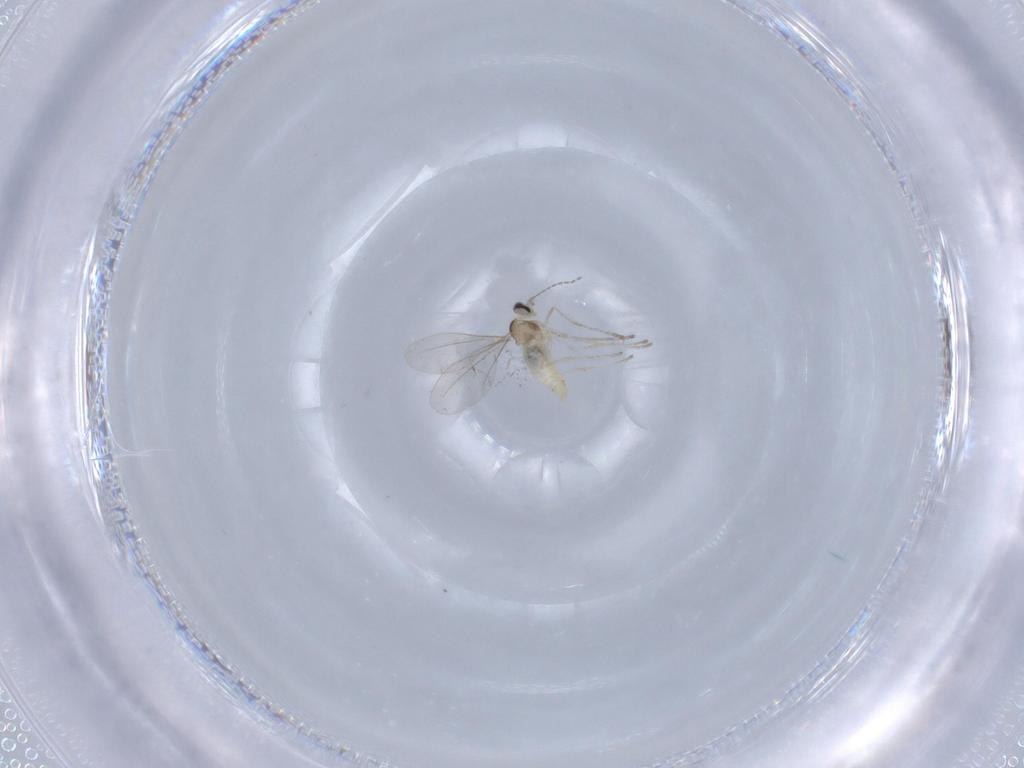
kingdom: Animalia
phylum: Arthropoda
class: Insecta
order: Diptera
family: Cecidomyiidae
